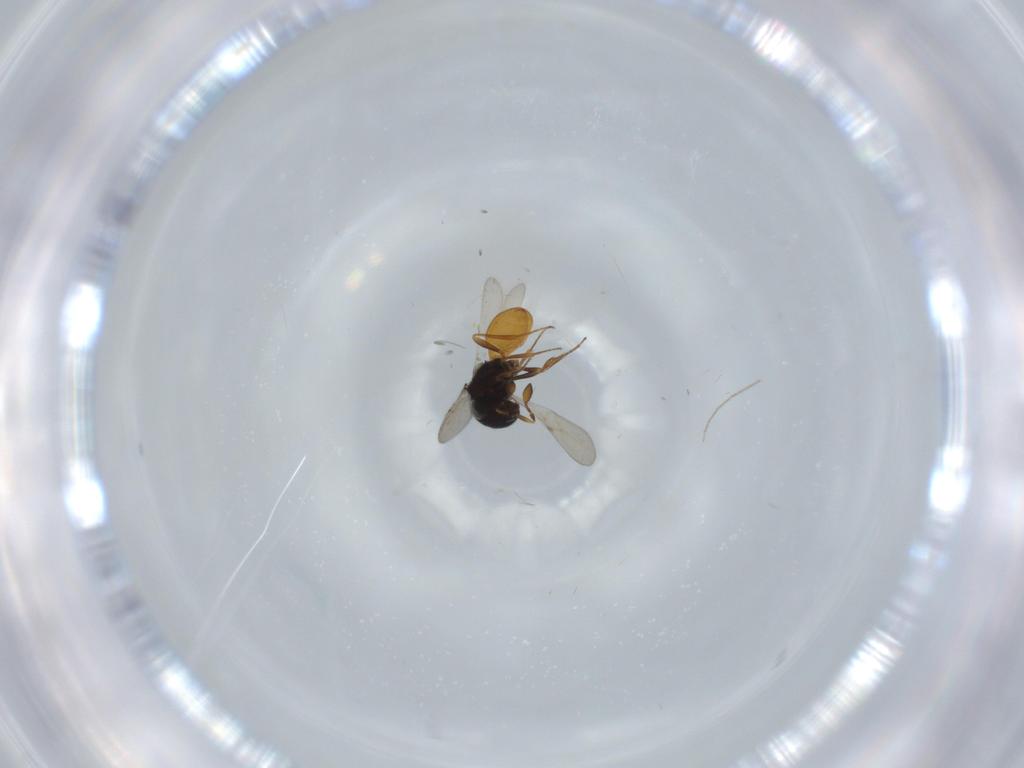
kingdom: Animalia
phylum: Arthropoda
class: Insecta
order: Hymenoptera
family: Scelionidae
